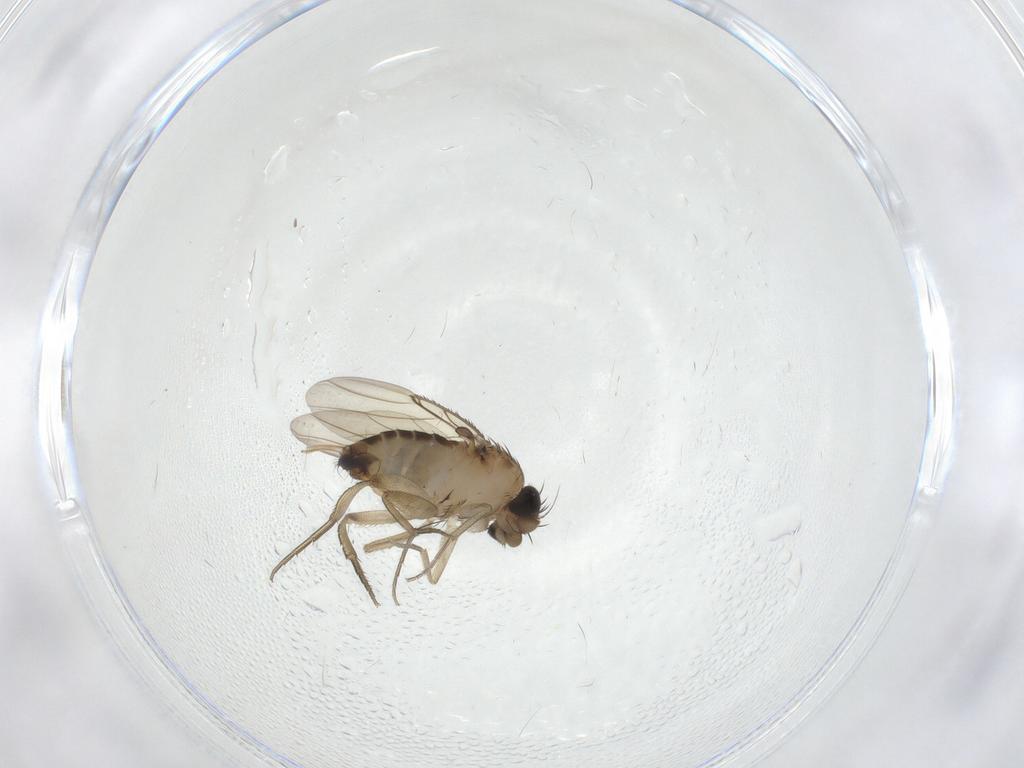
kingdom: Animalia
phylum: Arthropoda
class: Insecta
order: Diptera
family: Phoridae
